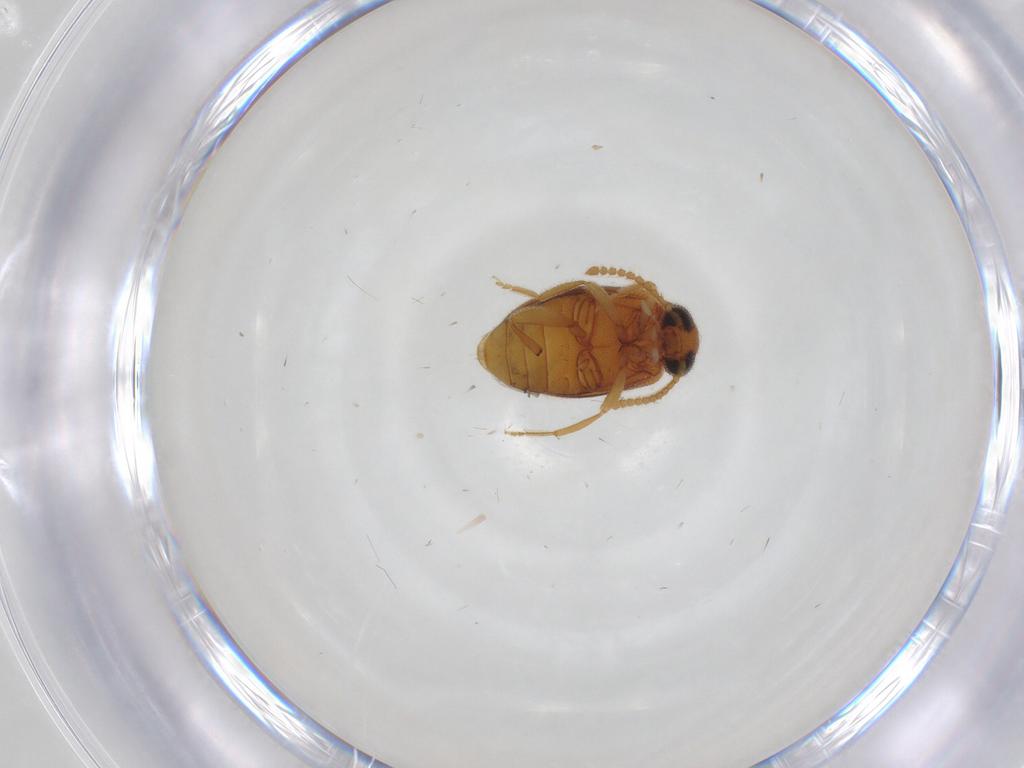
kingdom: Animalia
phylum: Arthropoda
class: Insecta
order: Coleoptera
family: Aderidae
